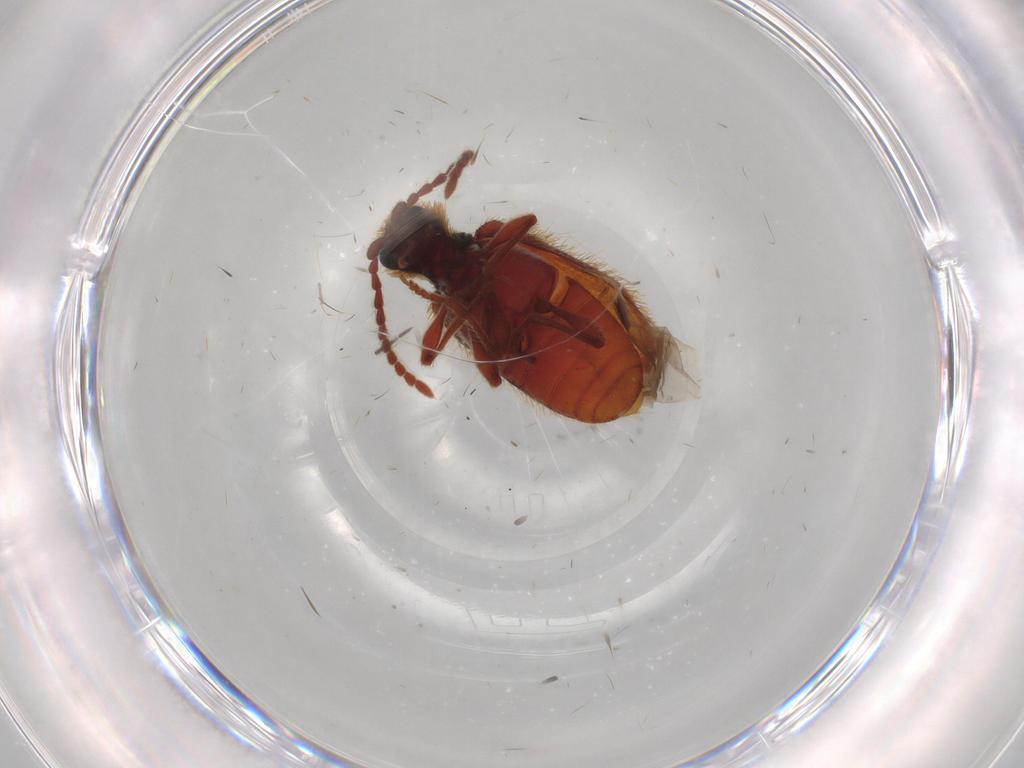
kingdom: Animalia
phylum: Arthropoda
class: Insecta
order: Coleoptera
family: Ptinidae
